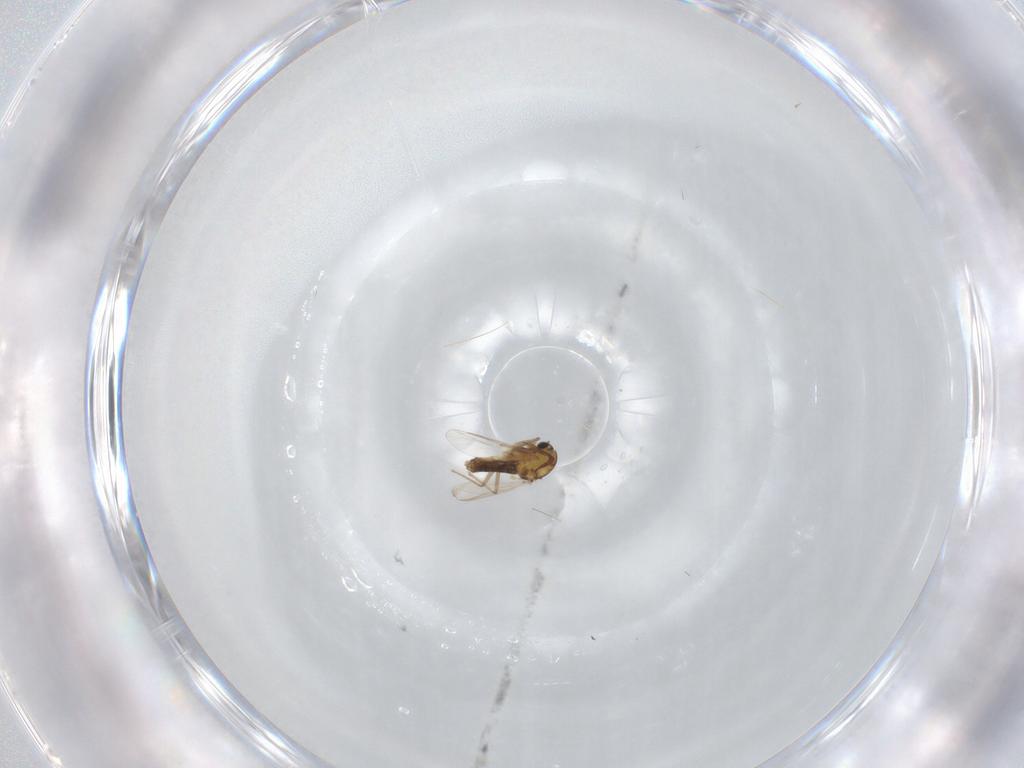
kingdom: Animalia
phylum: Arthropoda
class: Insecta
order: Diptera
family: Chironomidae
